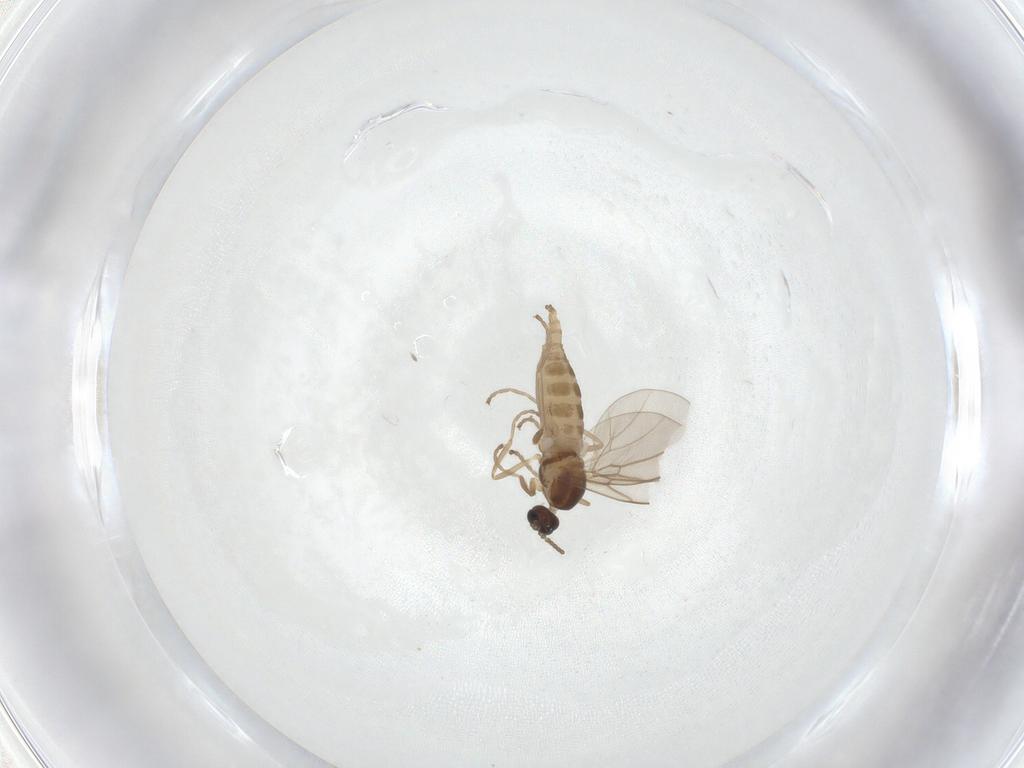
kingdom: Animalia
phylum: Arthropoda
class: Insecta
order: Diptera
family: Cecidomyiidae
